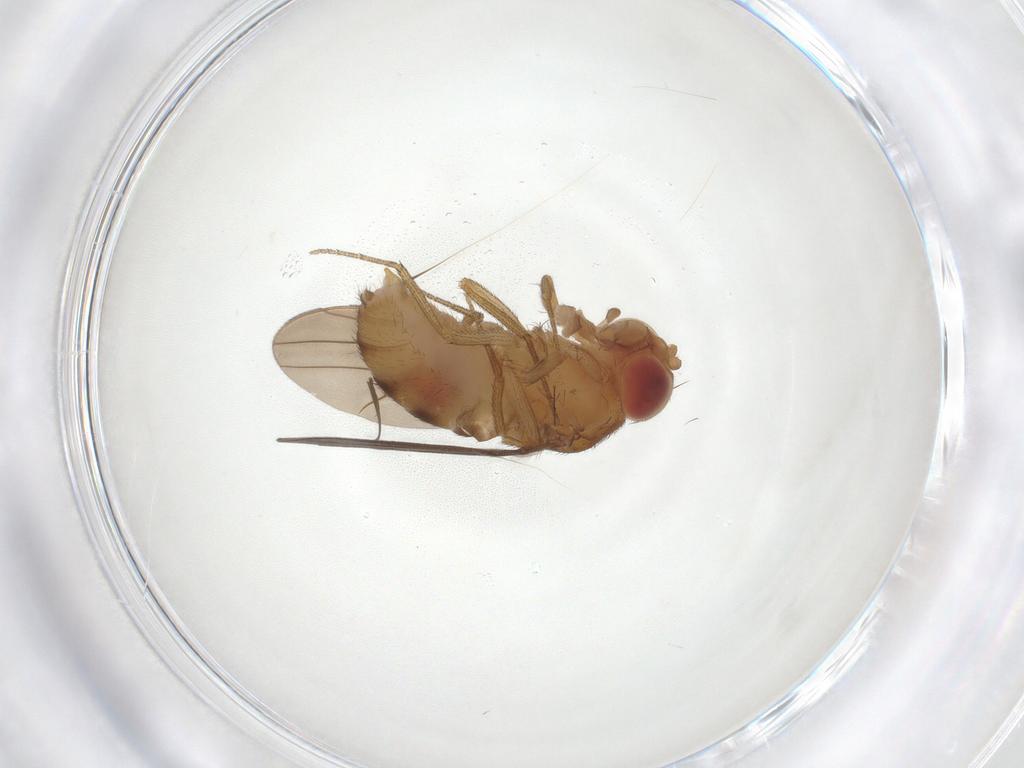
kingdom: Animalia
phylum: Arthropoda
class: Insecta
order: Diptera
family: Drosophilidae
